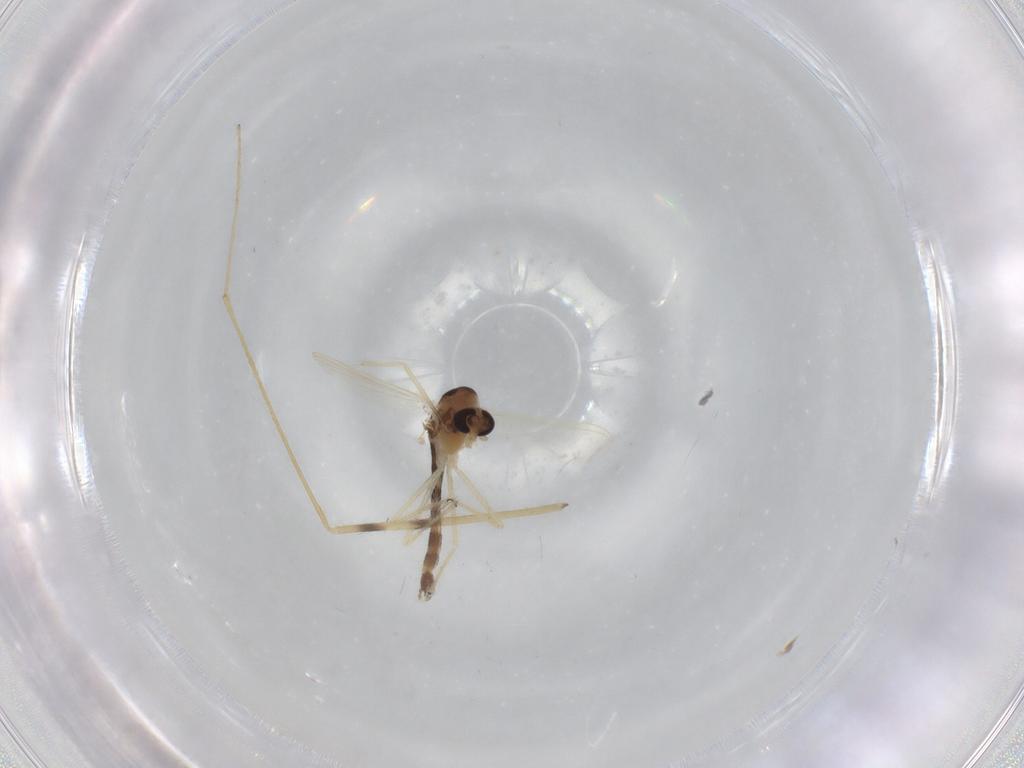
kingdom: Animalia
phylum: Arthropoda
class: Insecta
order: Diptera
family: Chironomidae
